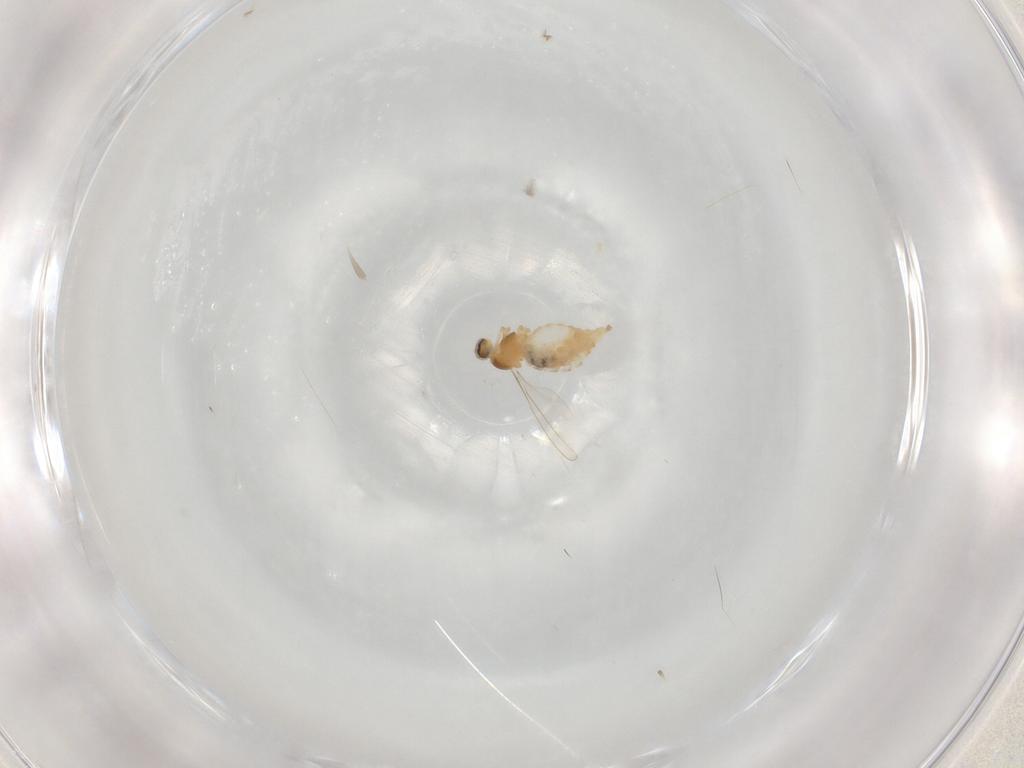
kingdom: Animalia
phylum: Arthropoda
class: Insecta
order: Diptera
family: Cecidomyiidae
